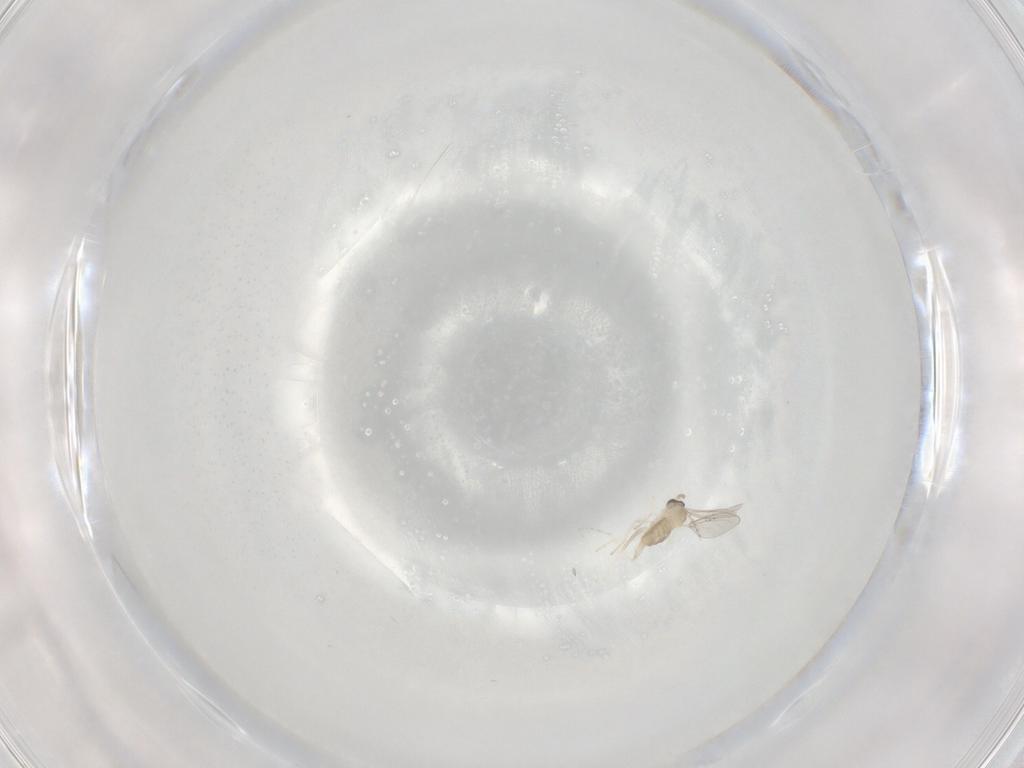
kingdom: Animalia
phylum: Arthropoda
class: Insecta
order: Diptera
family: Cecidomyiidae
